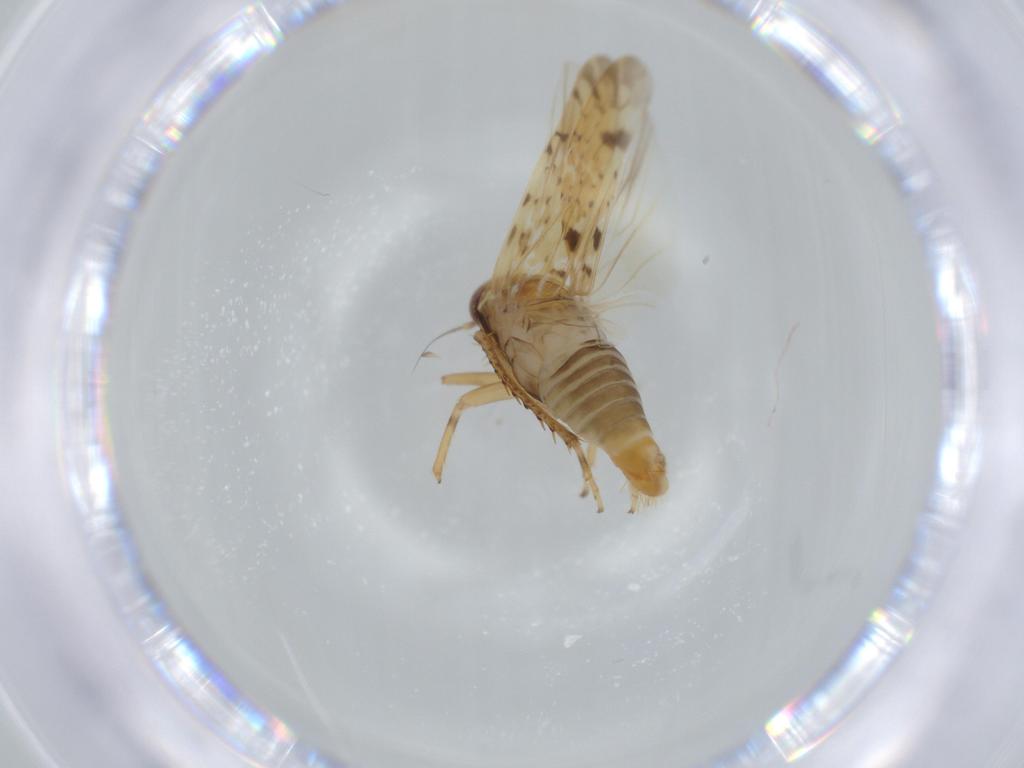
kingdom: Animalia
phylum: Arthropoda
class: Insecta
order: Hemiptera
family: Cicadellidae
